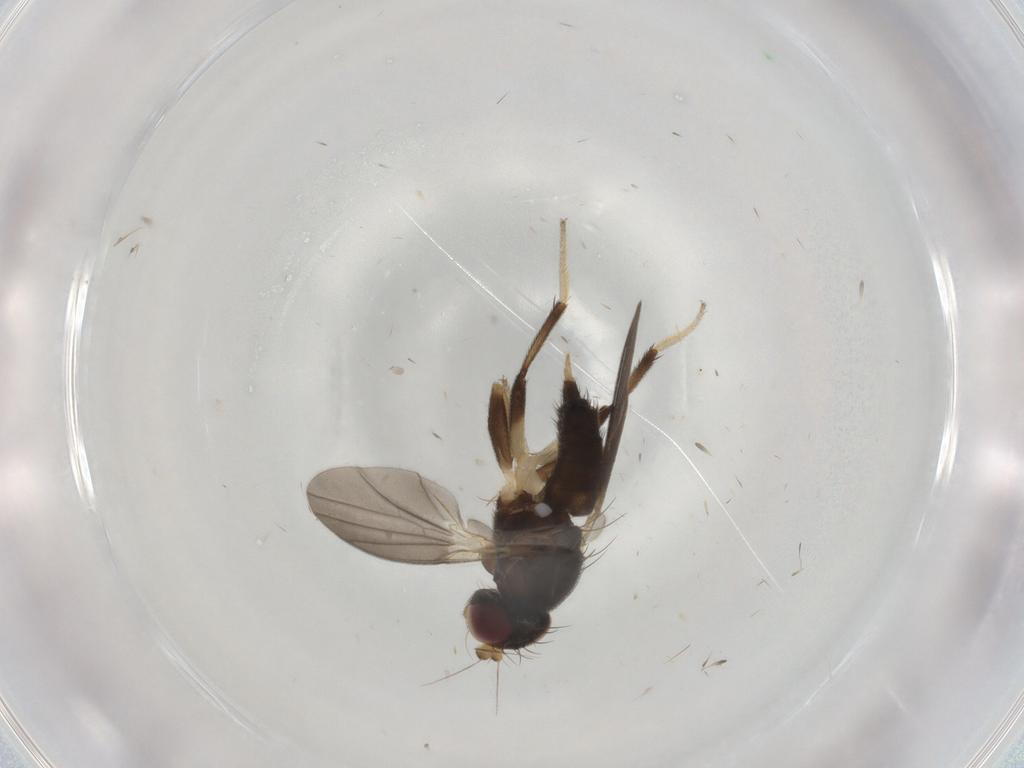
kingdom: Animalia
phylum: Arthropoda
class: Insecta
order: Diptera
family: Clusiidae
